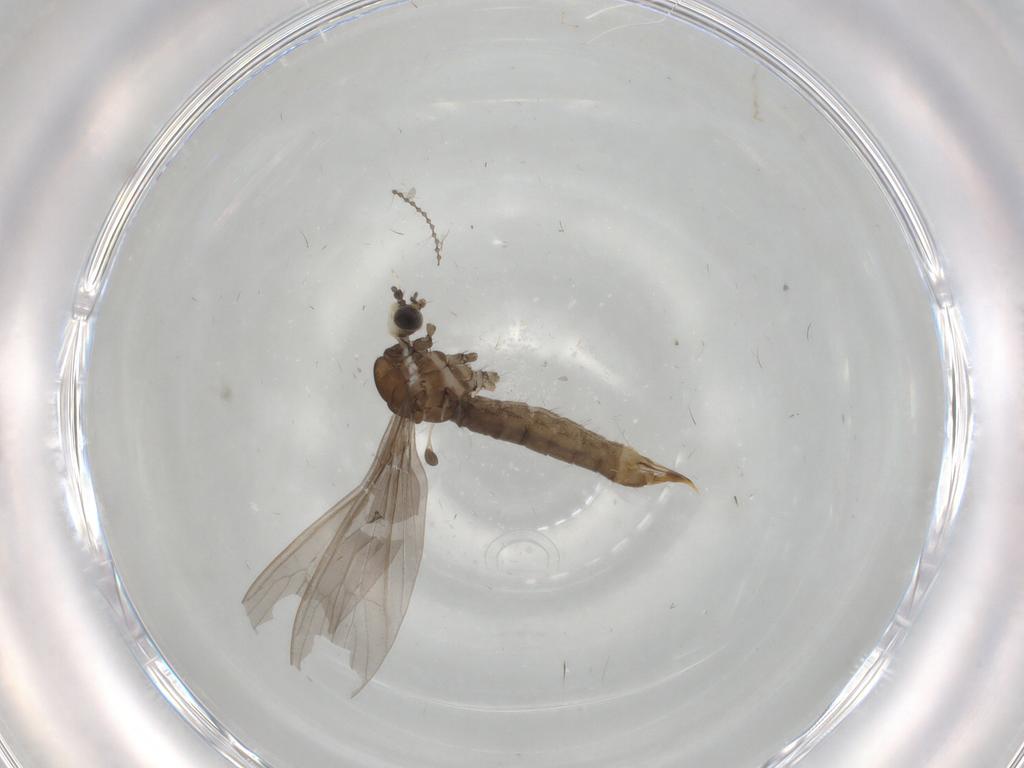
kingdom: Animalia
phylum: Arthropoda
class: Insecta
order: Diptera
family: Limoniidae
